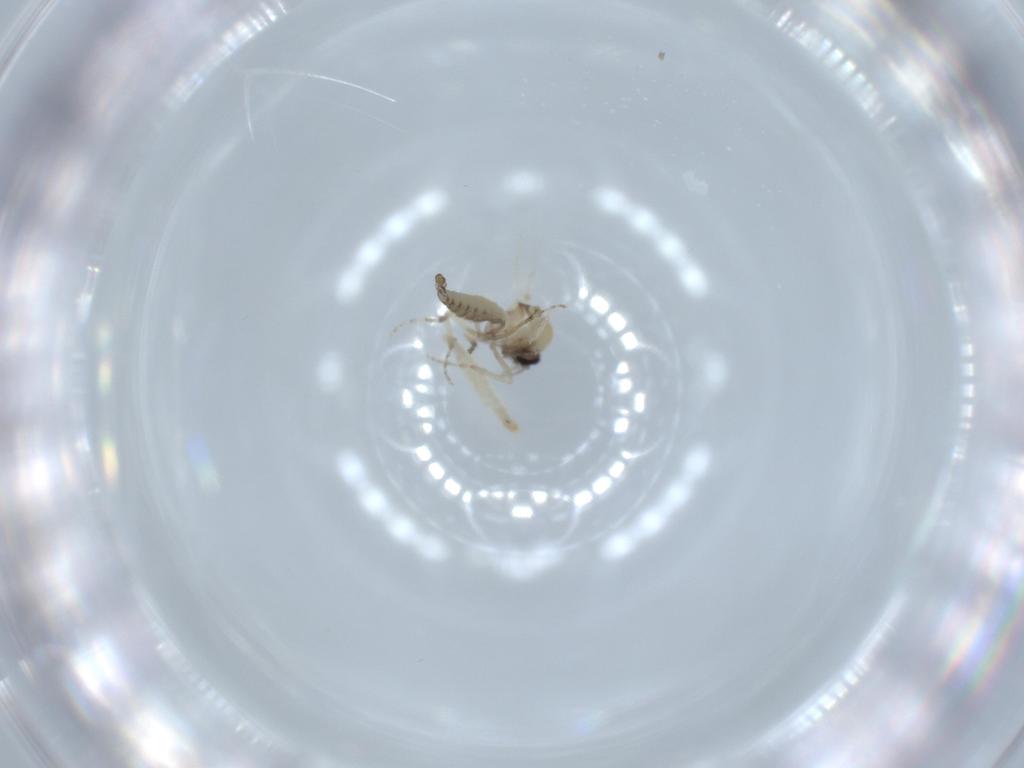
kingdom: Animalia
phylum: Arthropoda
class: Insecta
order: Diptera
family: Ceratopogonidae
